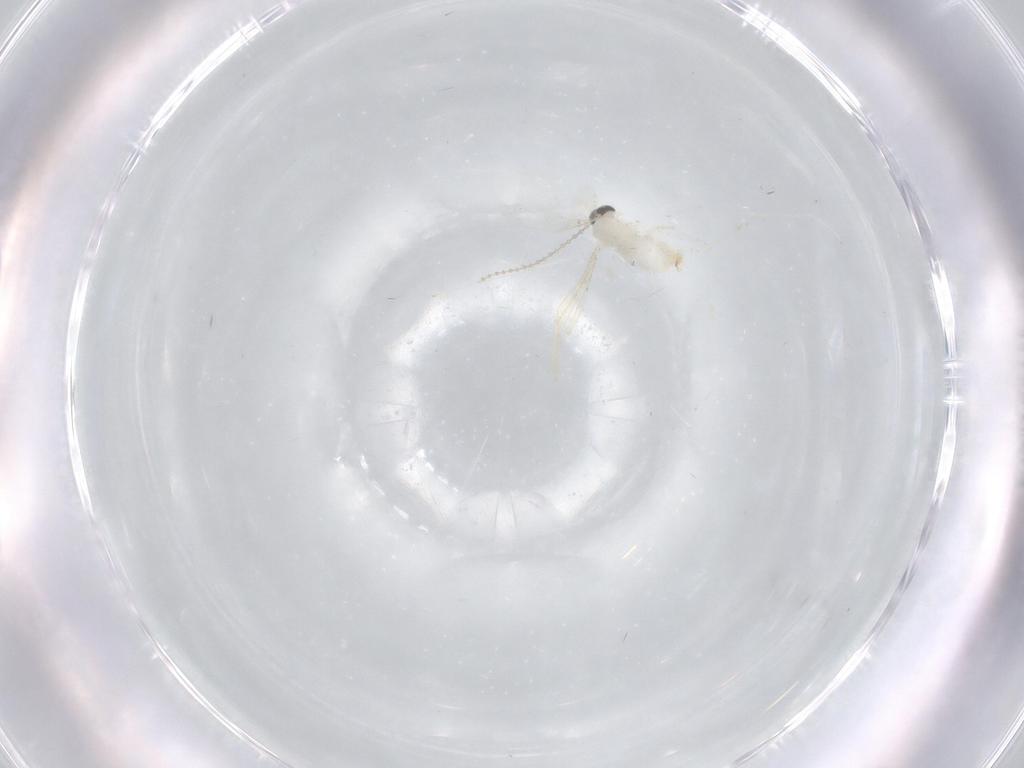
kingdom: Animalia
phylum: Arthropoda
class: Insecta
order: Diptera
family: Cecidomyiidae
